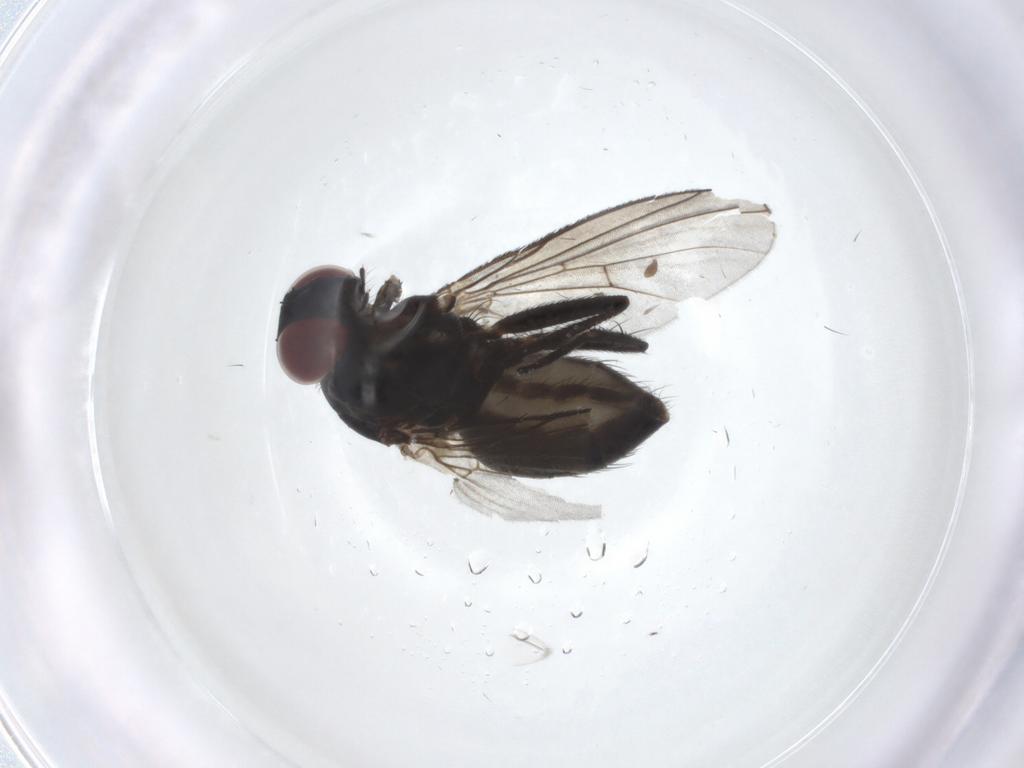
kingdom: Animalia
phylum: Arthropoda
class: Insecta
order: Diptera
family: Muscidae
